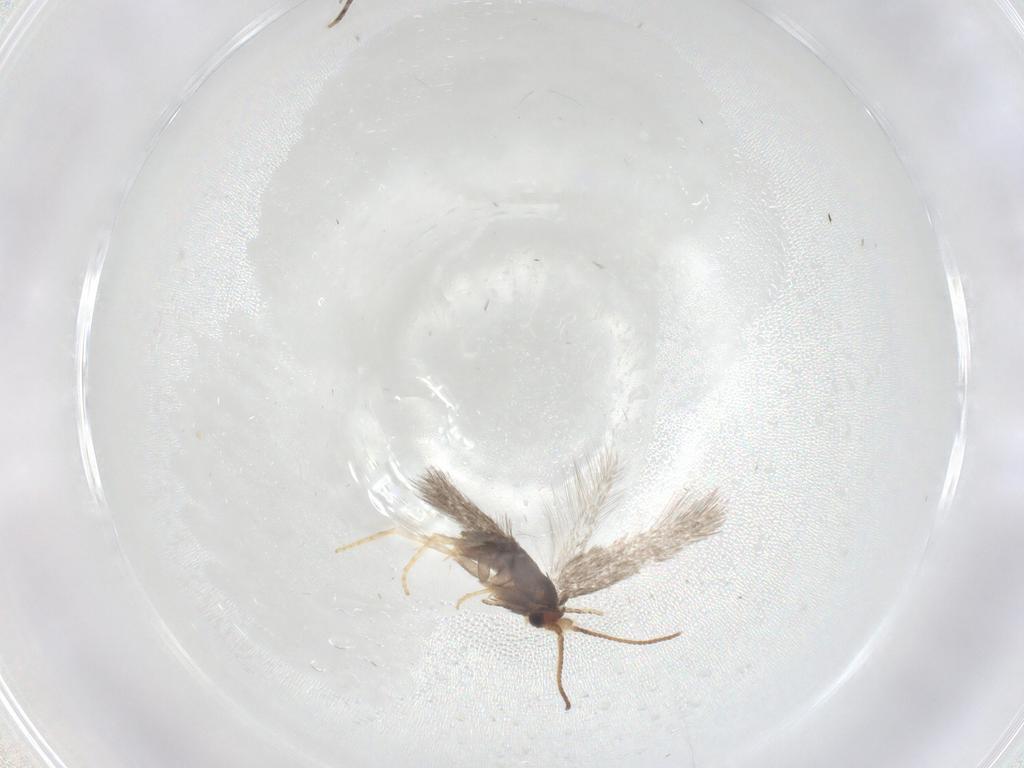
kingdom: Animalia
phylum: Arthropoda
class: Insecta
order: Lepidoptera
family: Nepticulidae
